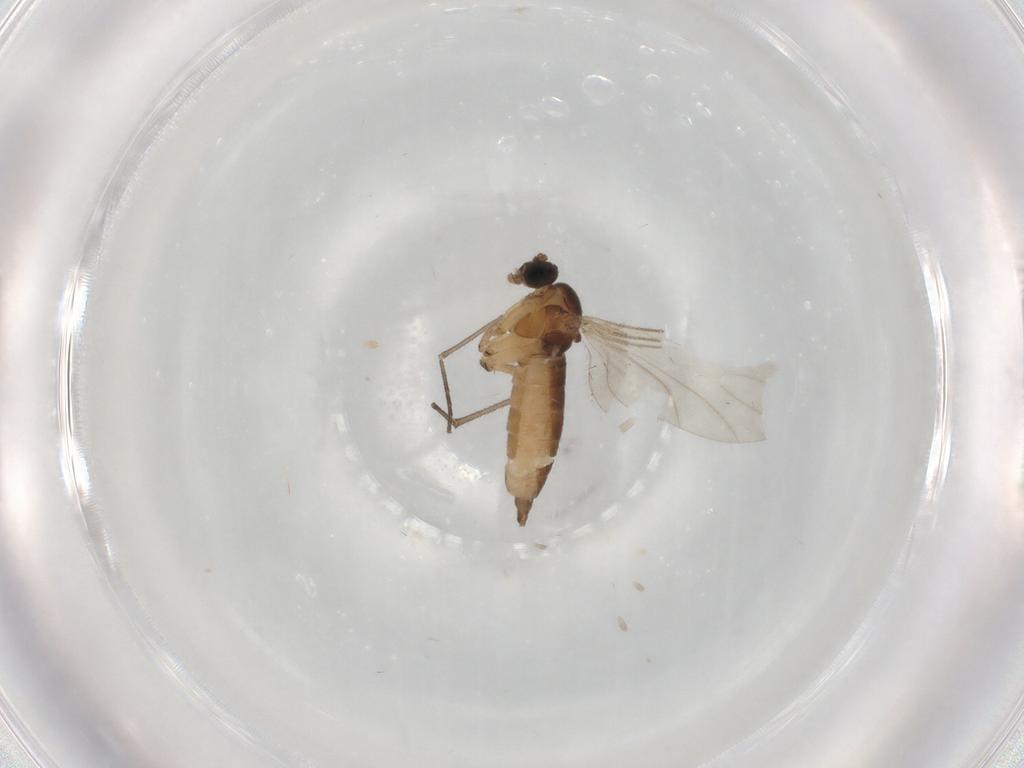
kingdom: Animalia
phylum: Arthropoda
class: Insecta
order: Diptera
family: Sciaridae
